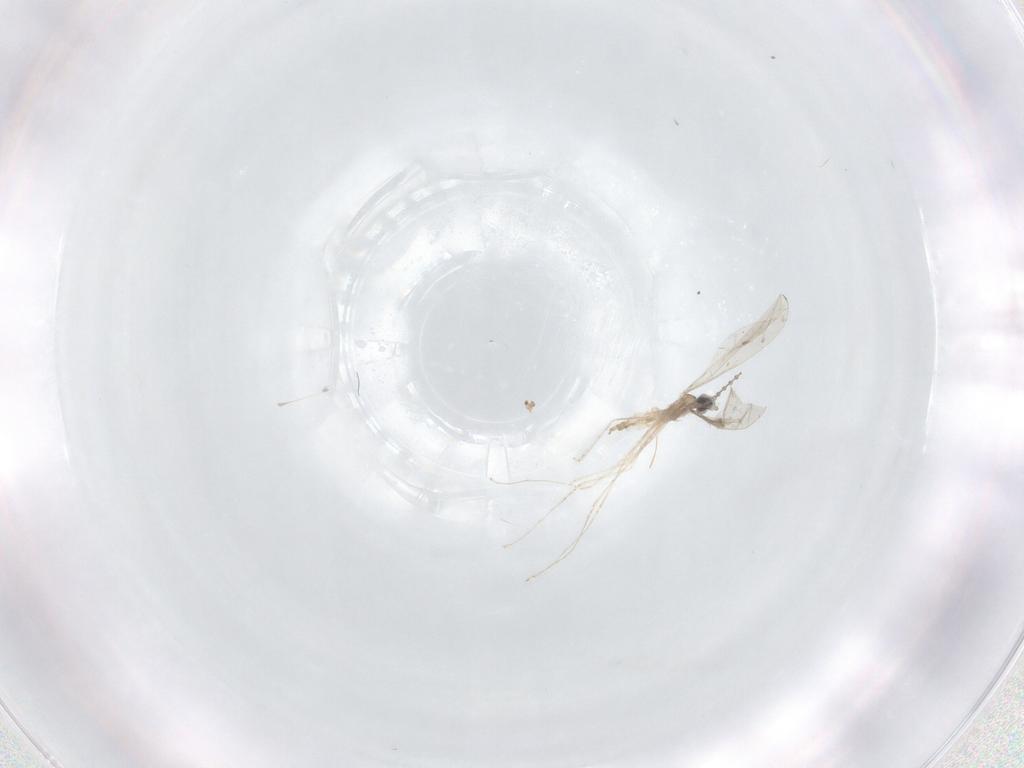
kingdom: Animalia
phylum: Arthropoda
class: Insecta
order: Diptera
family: Cecidomyiidae
